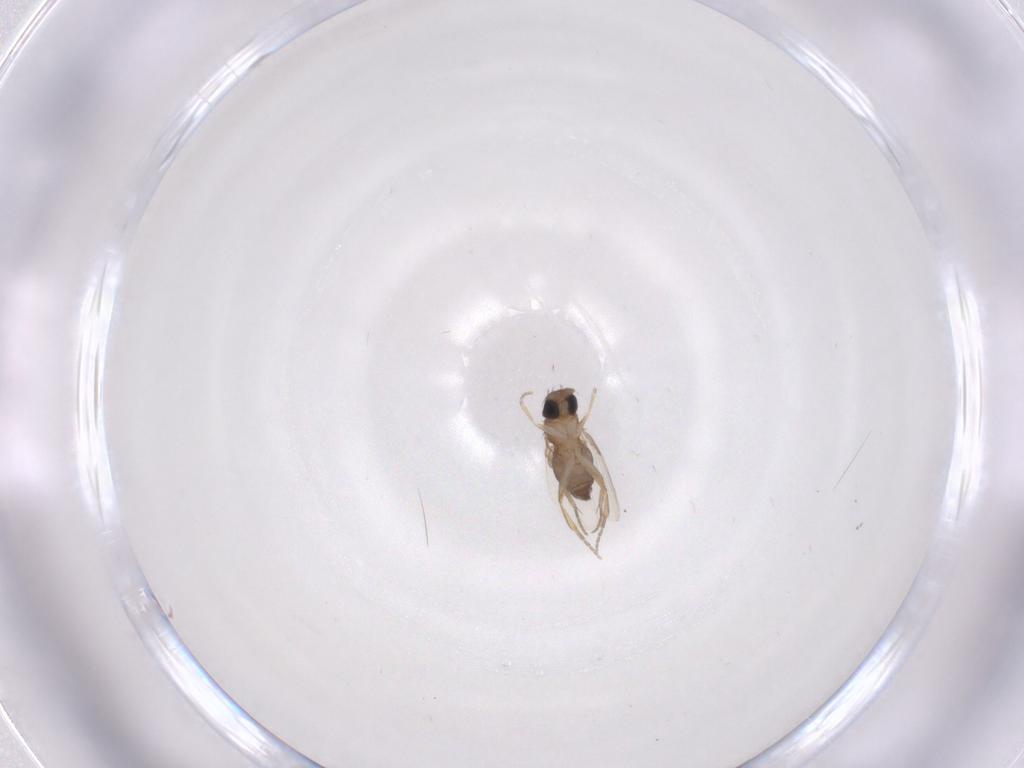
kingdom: Animalia
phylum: Arthropoda
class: Insecta
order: Diptera
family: Phoridae
